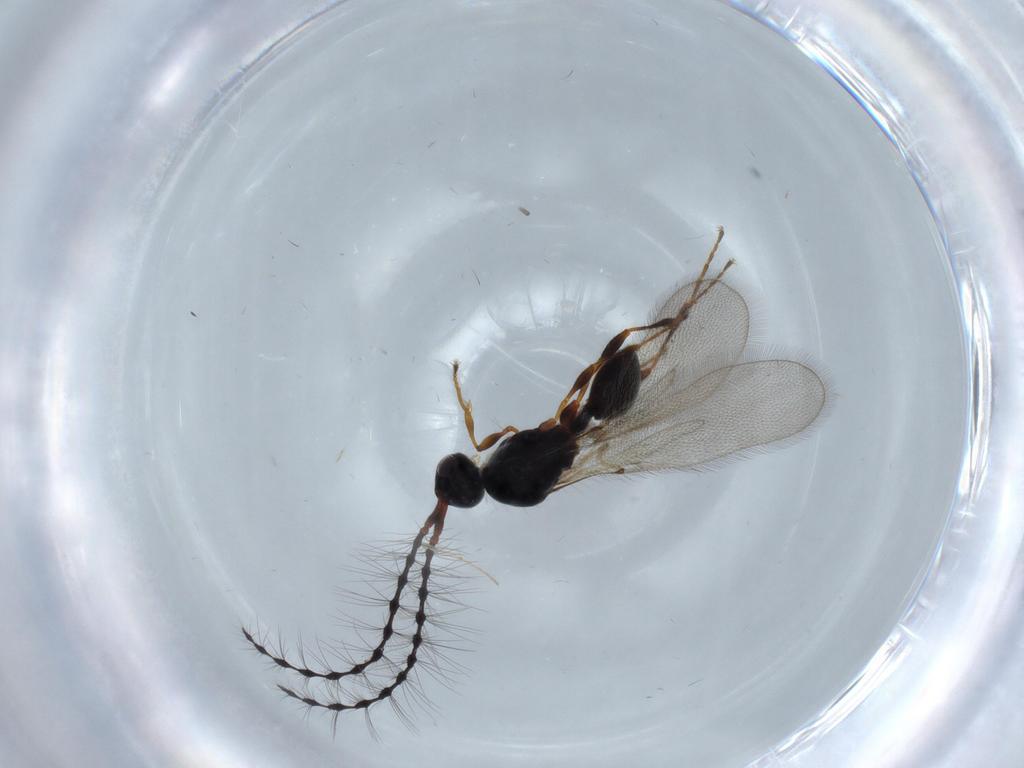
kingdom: Animalia
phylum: Arthropoda
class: Insecta
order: Hymenoptera
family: Diapriidae
